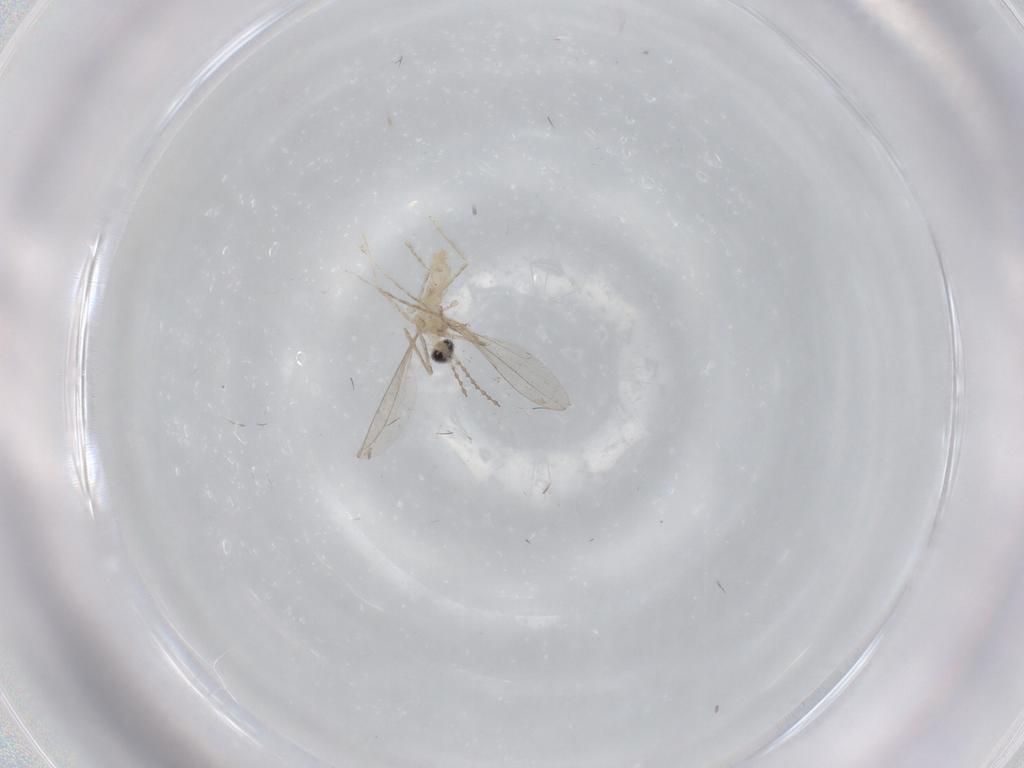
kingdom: Animalia
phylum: Arthropoda
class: Insecta
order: Diptera
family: Cecidomyiidae
